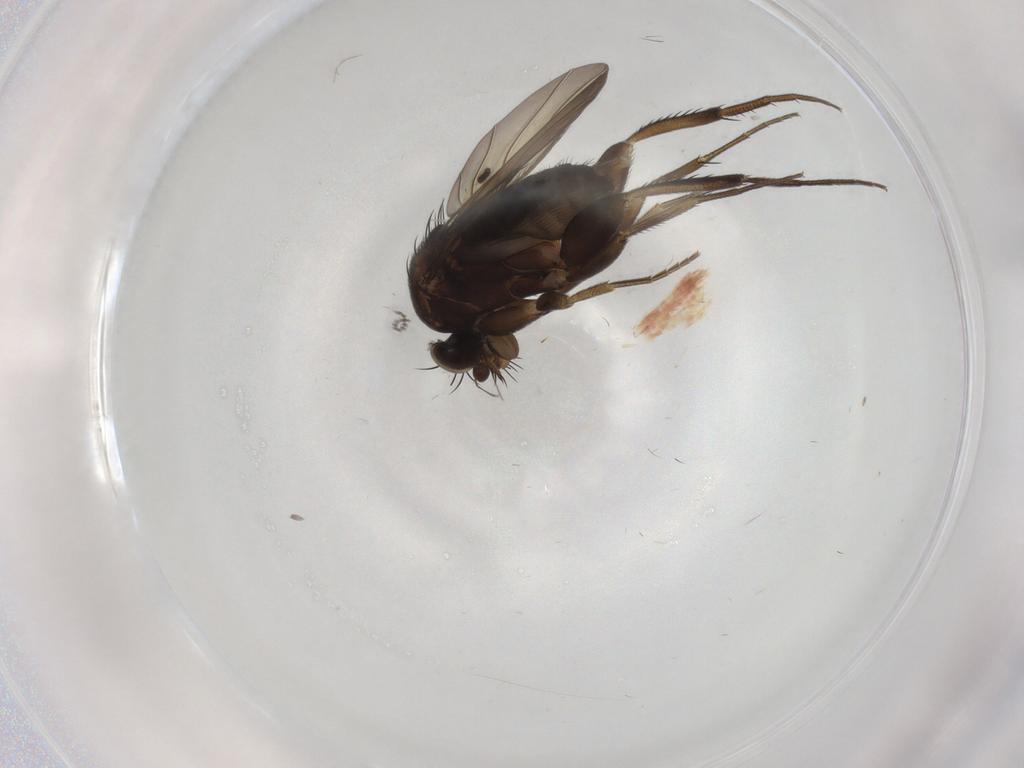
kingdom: Animalia
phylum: Arthropoda
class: Insecta
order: Diptera
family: Phoridae
